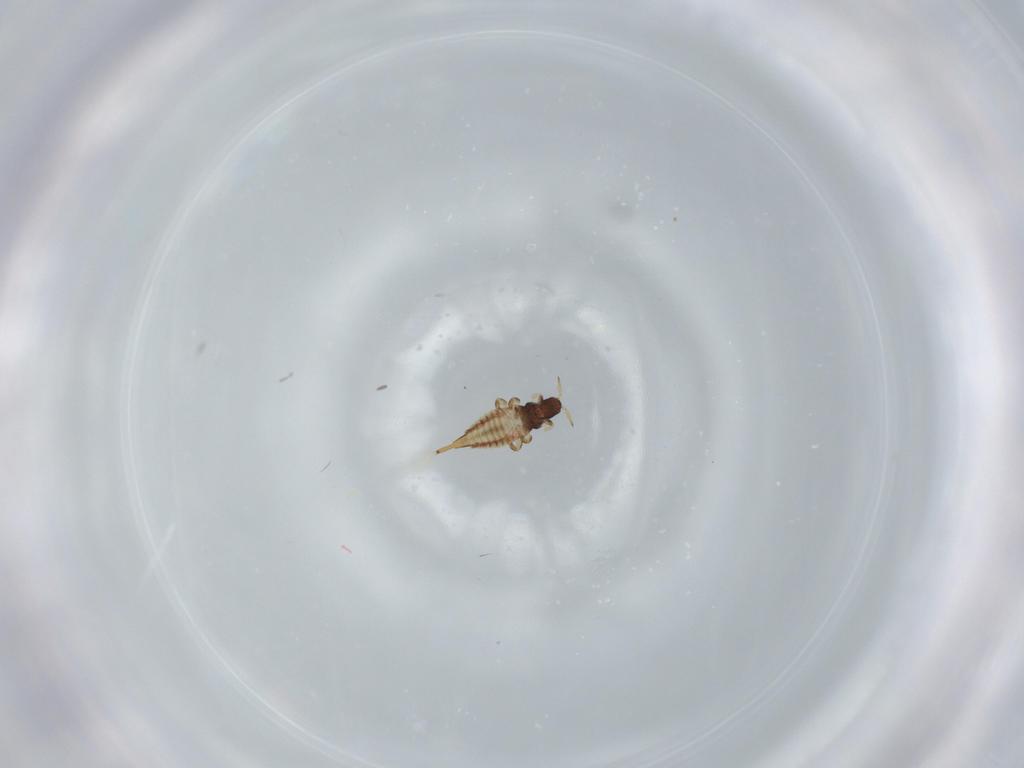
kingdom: Animalia
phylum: Arthropoda
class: Insecta
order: Thysanoptera
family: Phlaeothripidae
